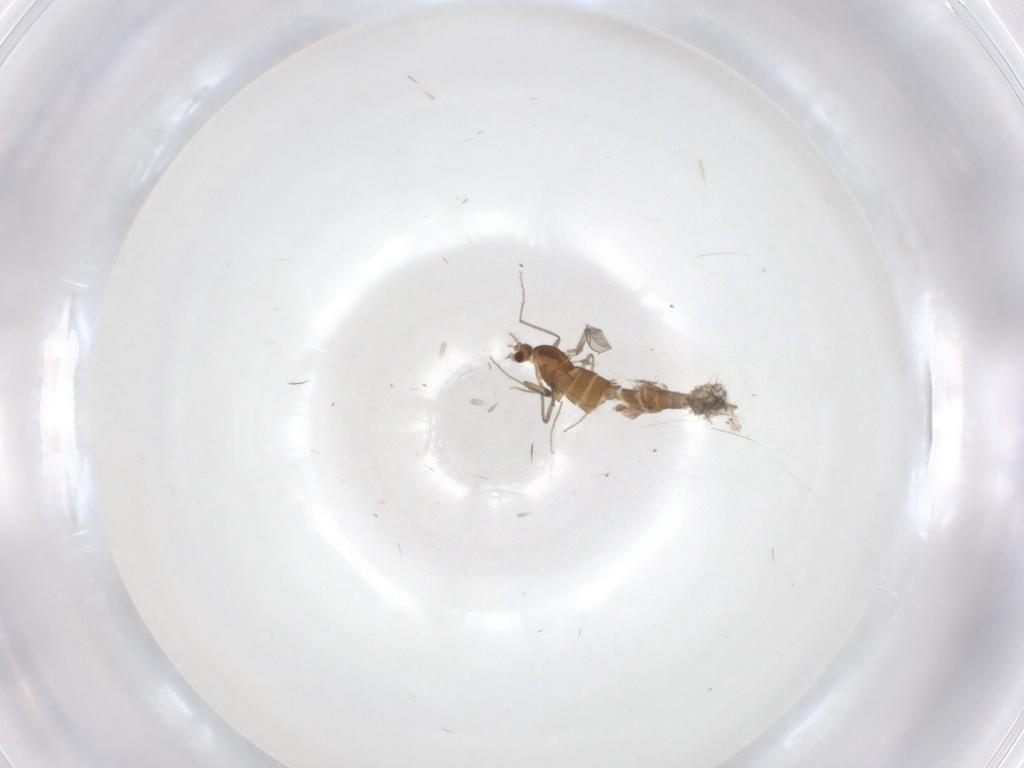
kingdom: Animalia
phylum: Arthropoda
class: Insecta
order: Diptera
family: Chironomidae
